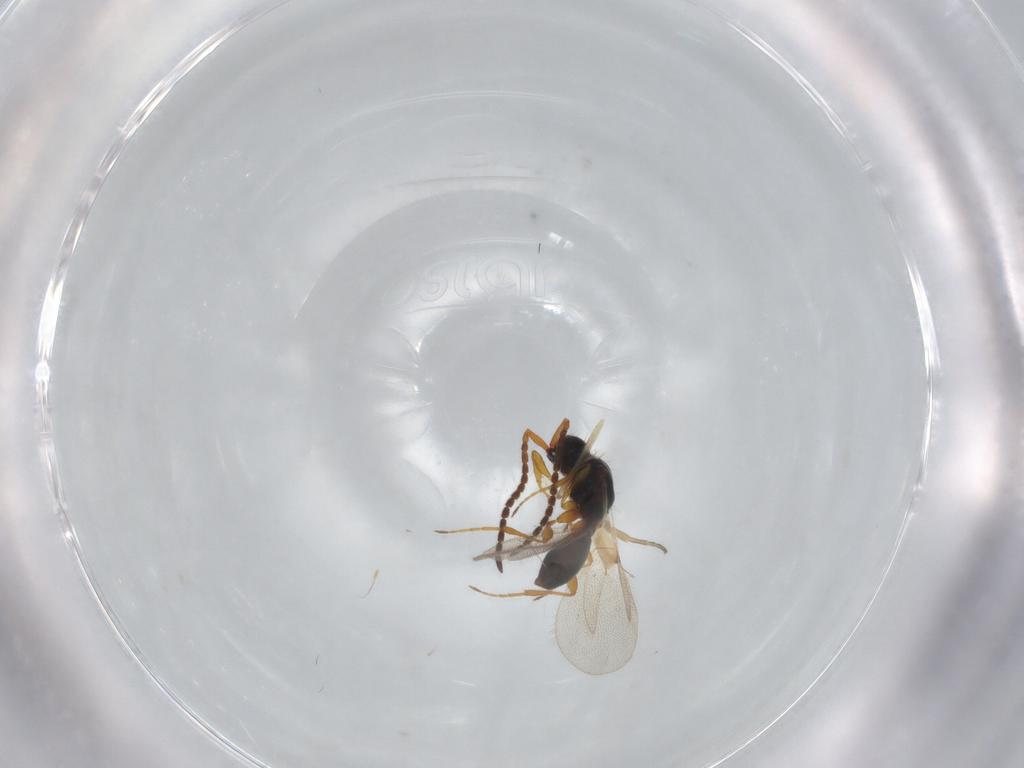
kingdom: Animalia
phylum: Arthropoda
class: Insecta
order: Hymenoptera
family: Diapriidae
